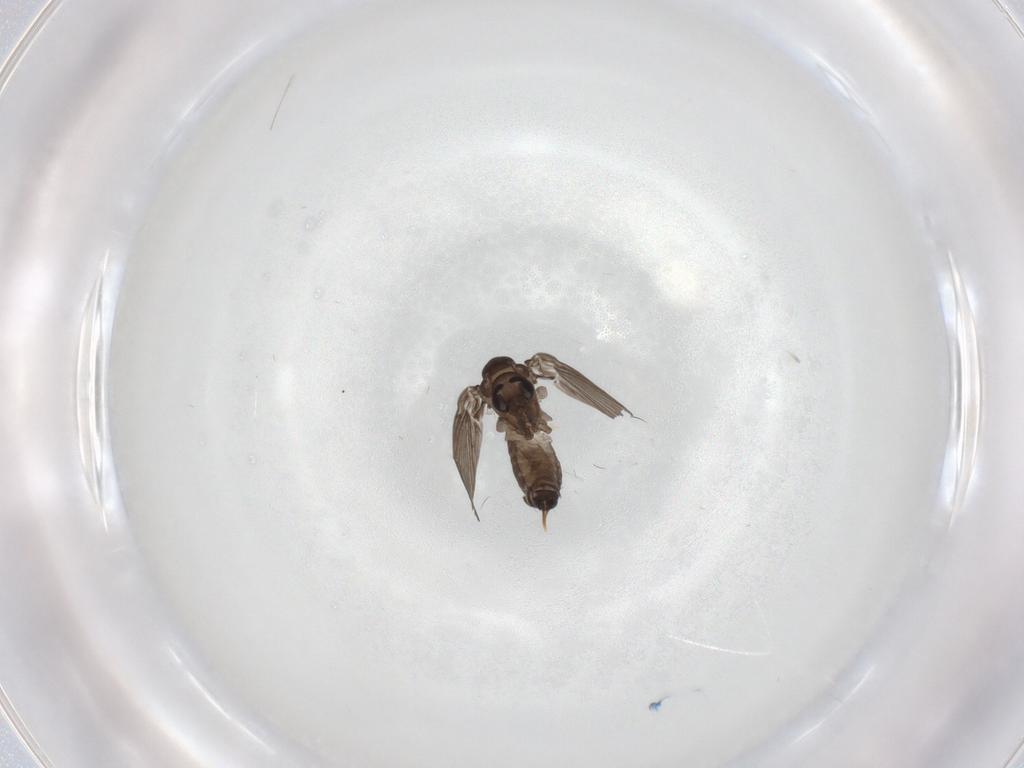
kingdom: Animalia
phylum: Arthropoda
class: Insecta
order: Diptera
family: Psychodidae
